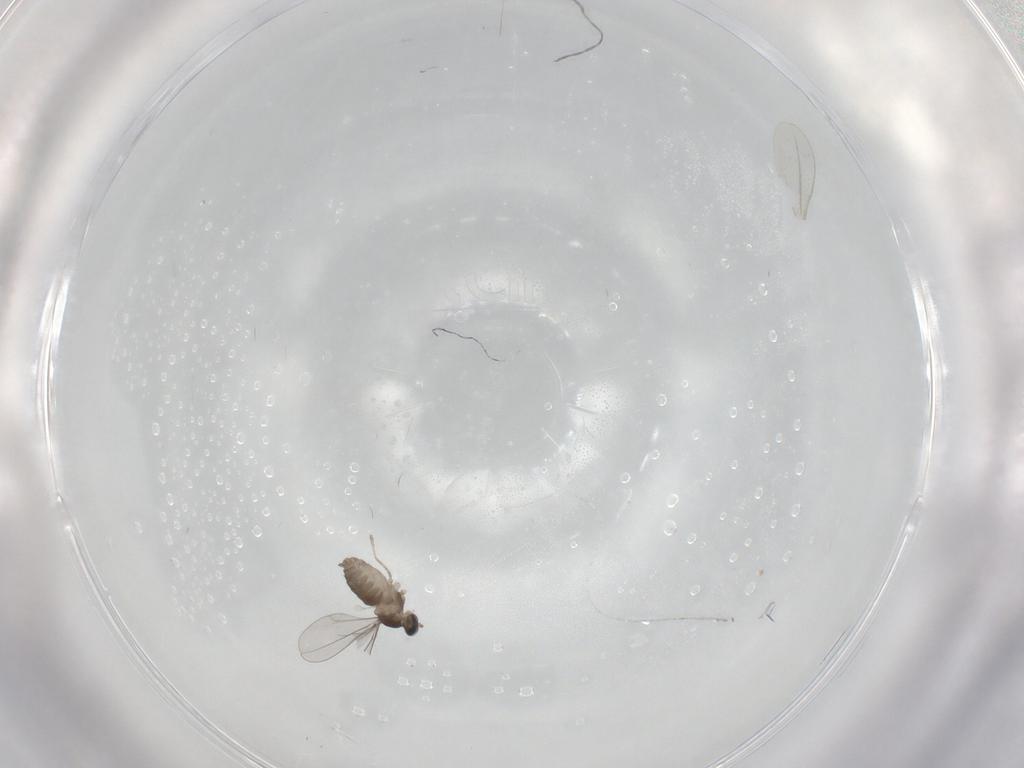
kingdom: Animalia
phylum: Arthropoda
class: Insecta
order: Diptera
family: Cecidomyiidae
